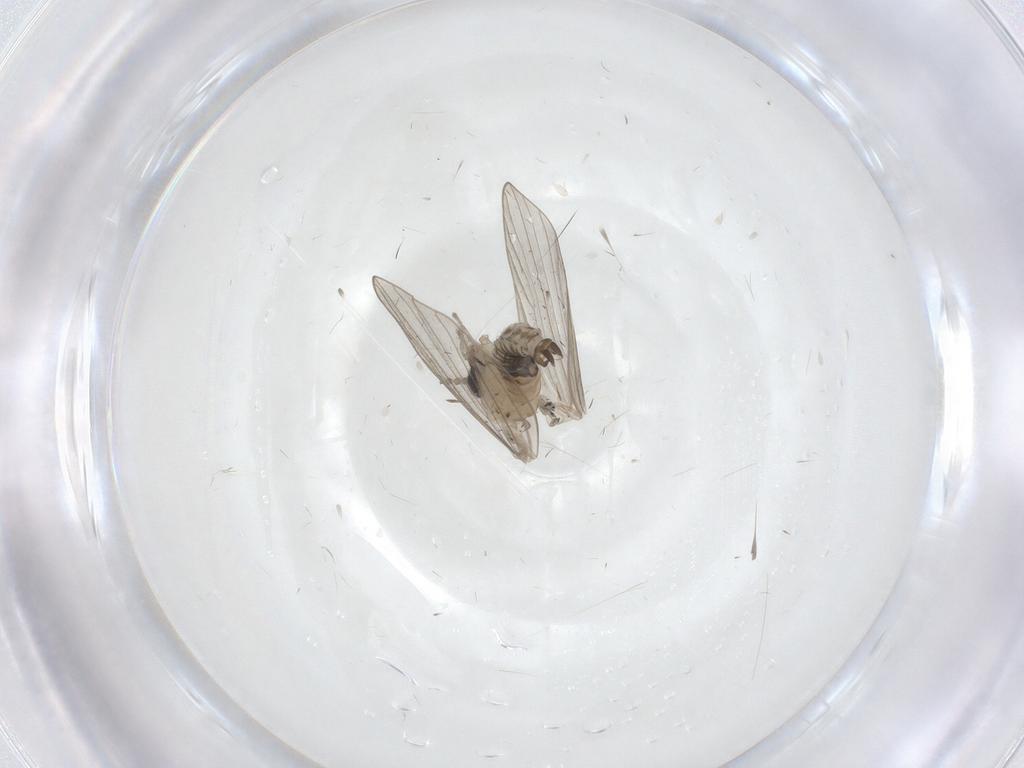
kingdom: Animalia
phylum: Arthropoda
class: Insecta
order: Diptera
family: Psychodidae
